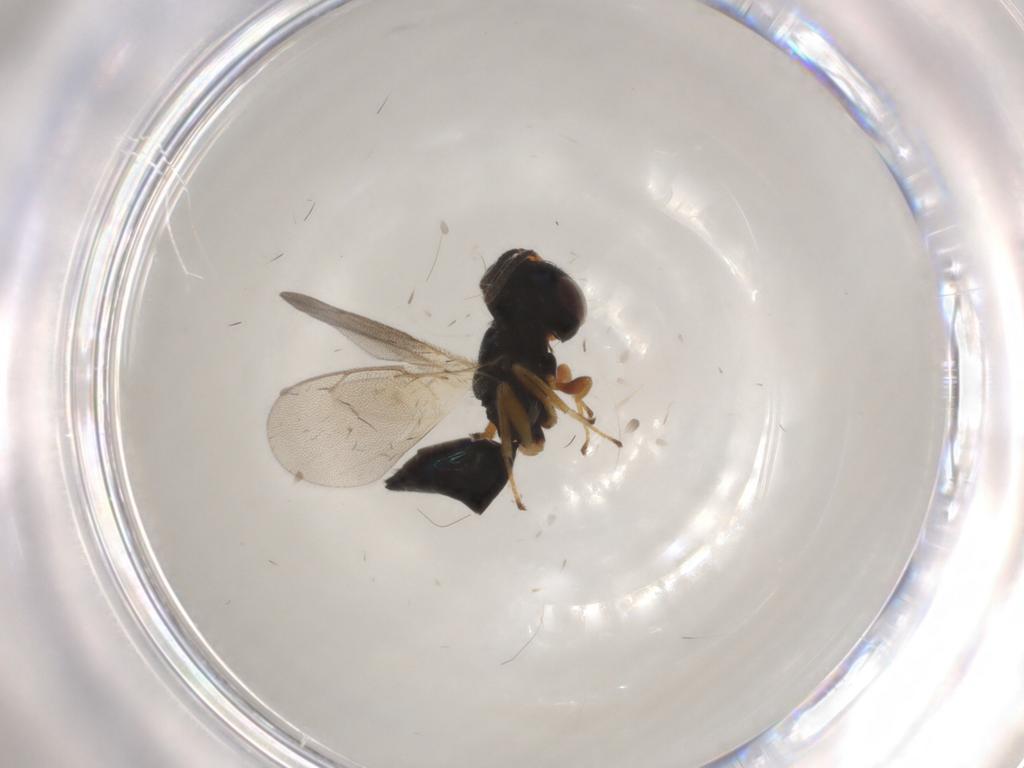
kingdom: Animalia
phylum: Arthropoda
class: Insecta
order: Hymenoptera
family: Chalcidoidea_incertae_sedis
